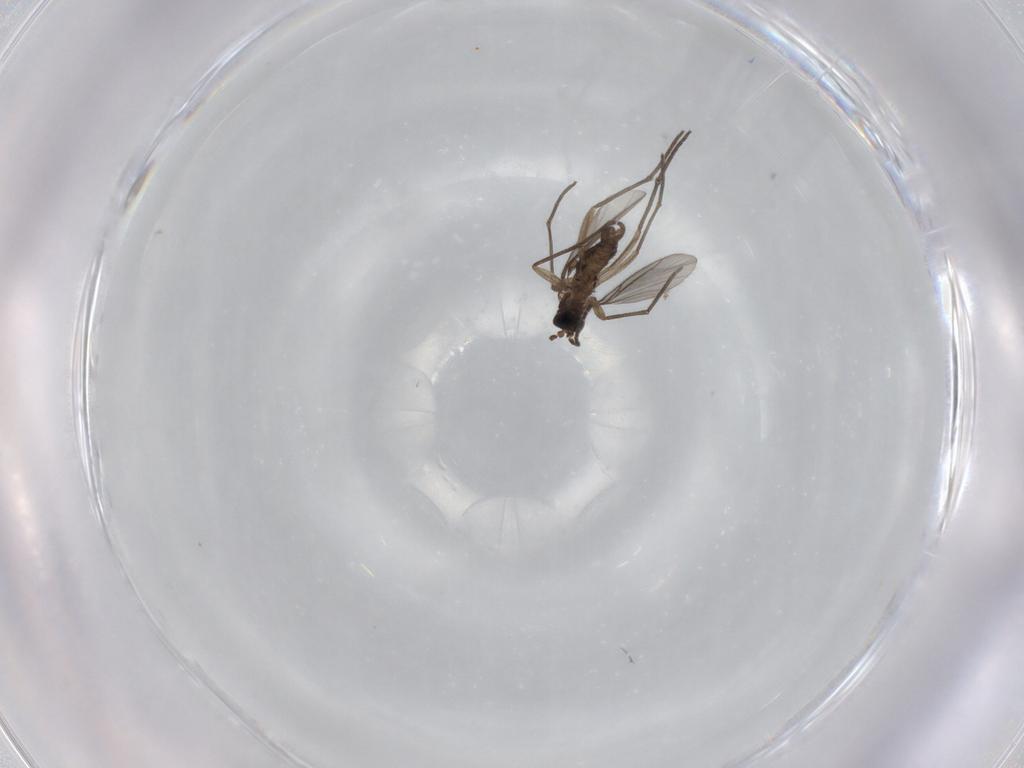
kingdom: Animalia
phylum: Arthropoda
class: Insecta
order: Diptera
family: Sciaridae
